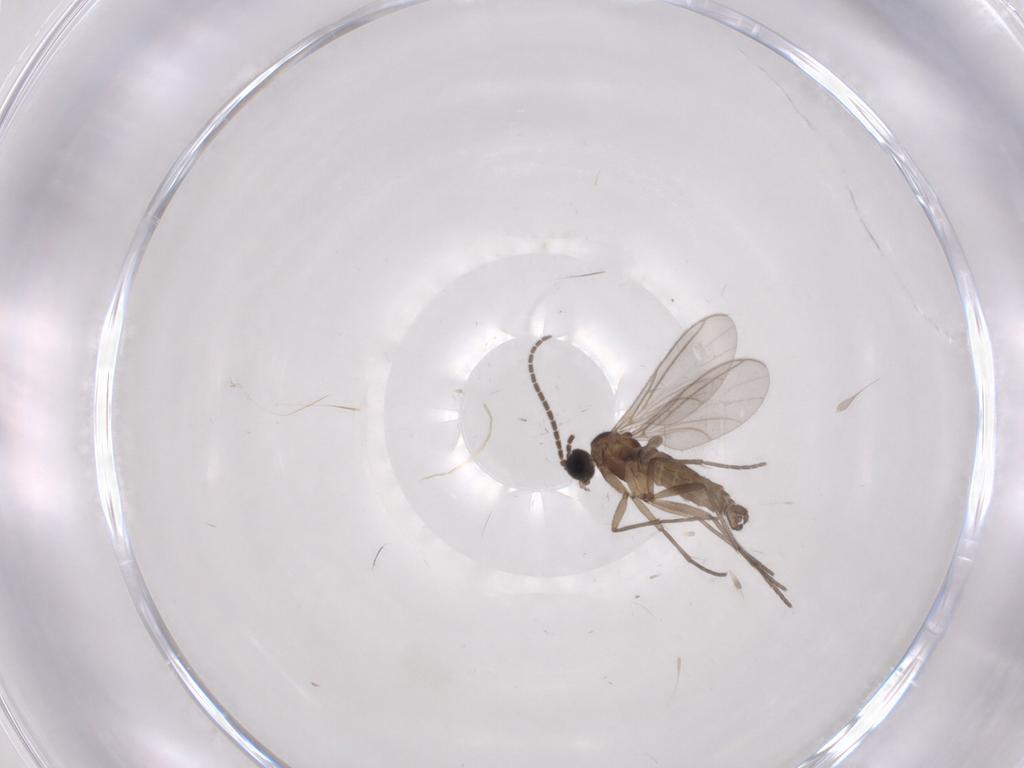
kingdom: Animalia
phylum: Arthropoda
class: Insecta
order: Diptera
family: Sciaridae
